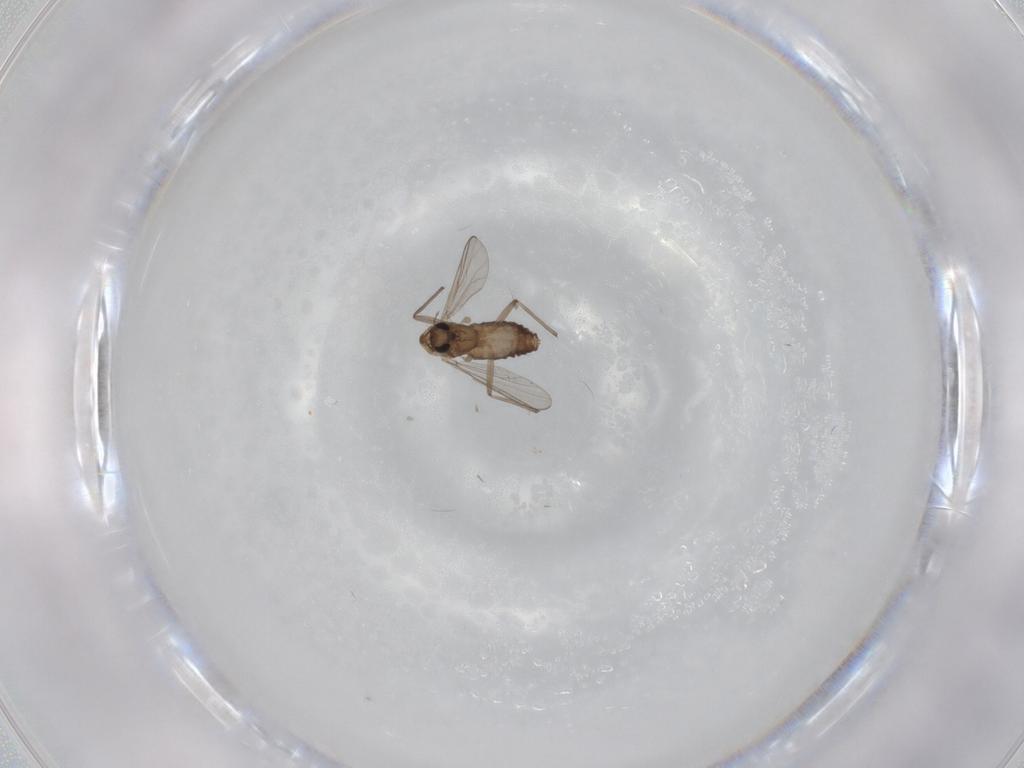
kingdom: Animalia
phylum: Arthropoda
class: Insecta
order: Diptera
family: Chironomidae
